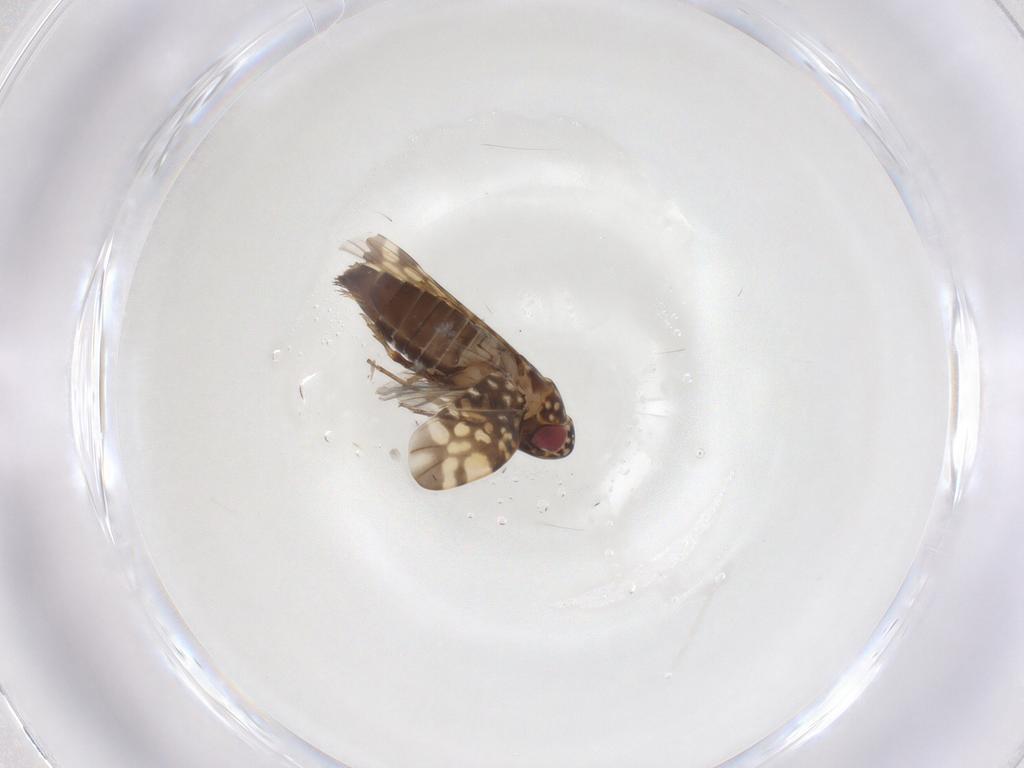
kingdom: Animalia
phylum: Arthropoda
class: Insecta
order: Hemiptera
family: Cicadellidae
